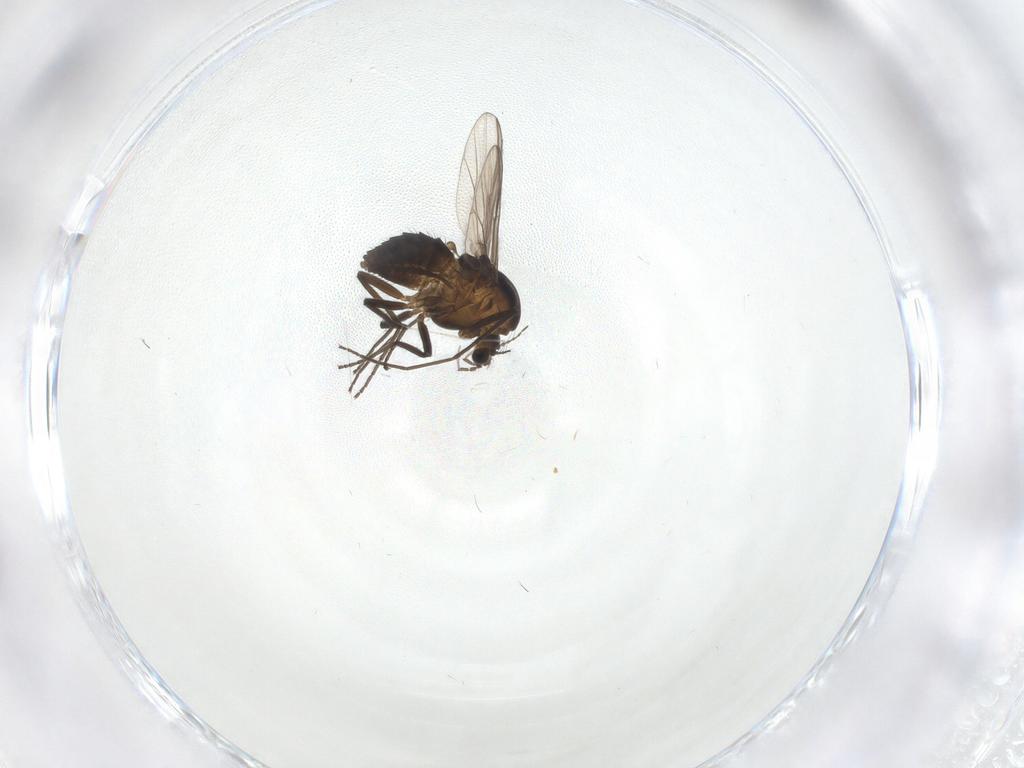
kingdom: Animalia
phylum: Arthropoda
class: Insecta
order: Diptera
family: Chironomidae
